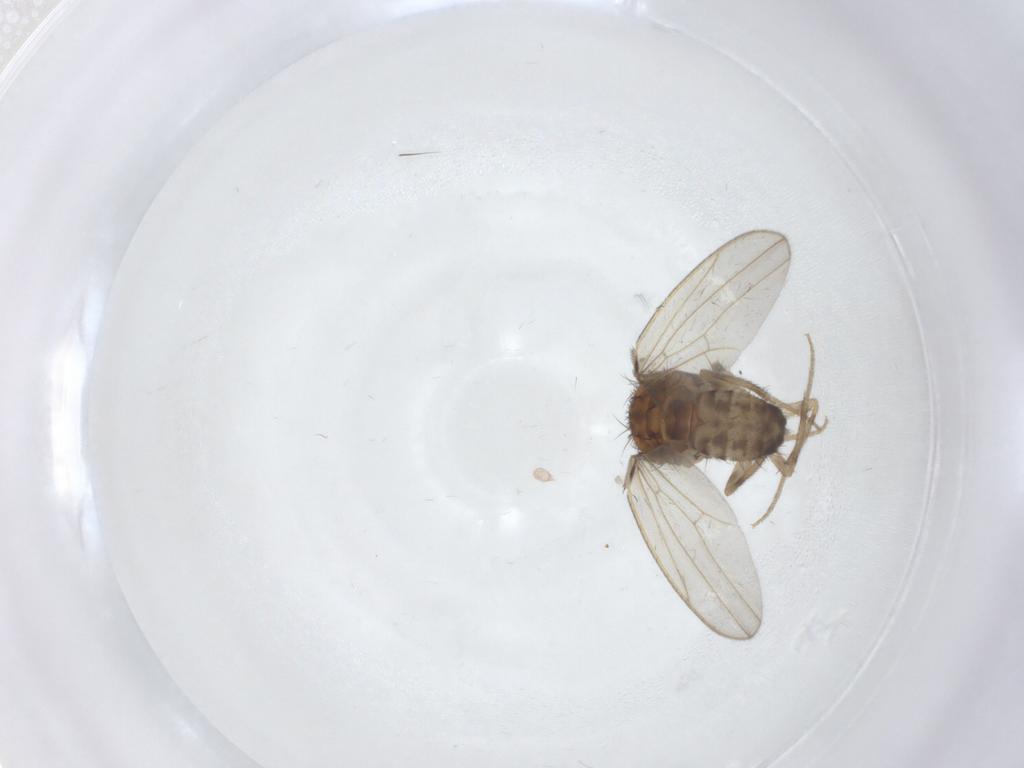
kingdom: Animalia
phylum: Arthropoda
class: Insecta
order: Diptera
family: Drosophilidae
